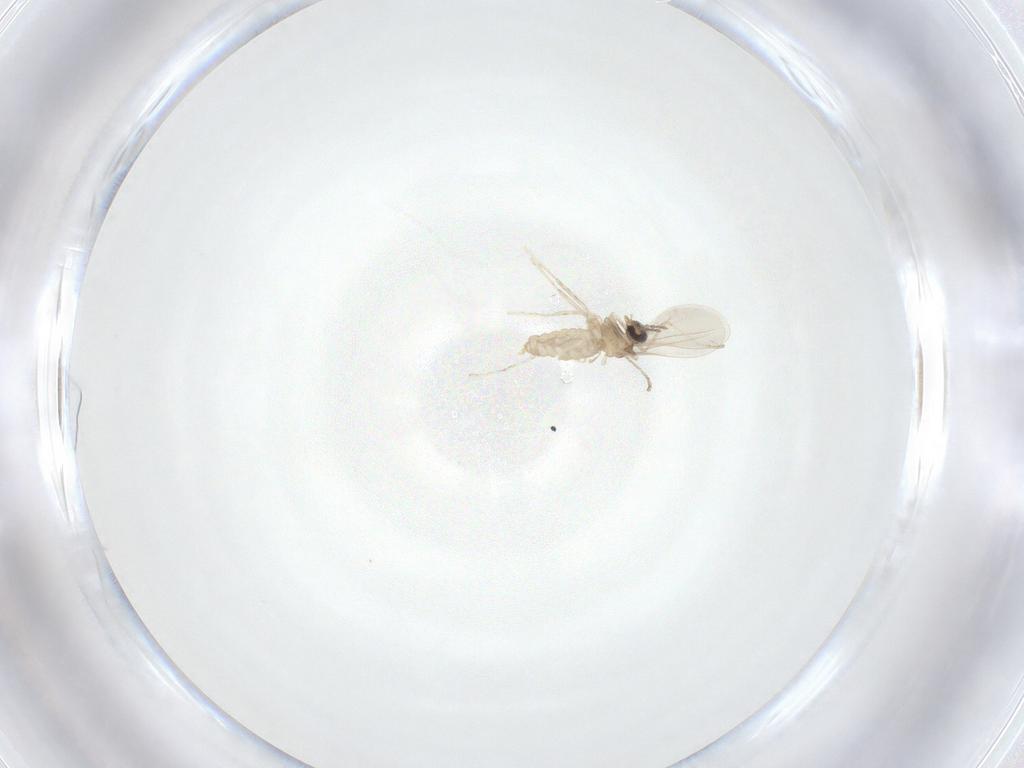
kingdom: Animalia
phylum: Arthropoda
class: Insecta
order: Diptera
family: Cecidomyiidae
